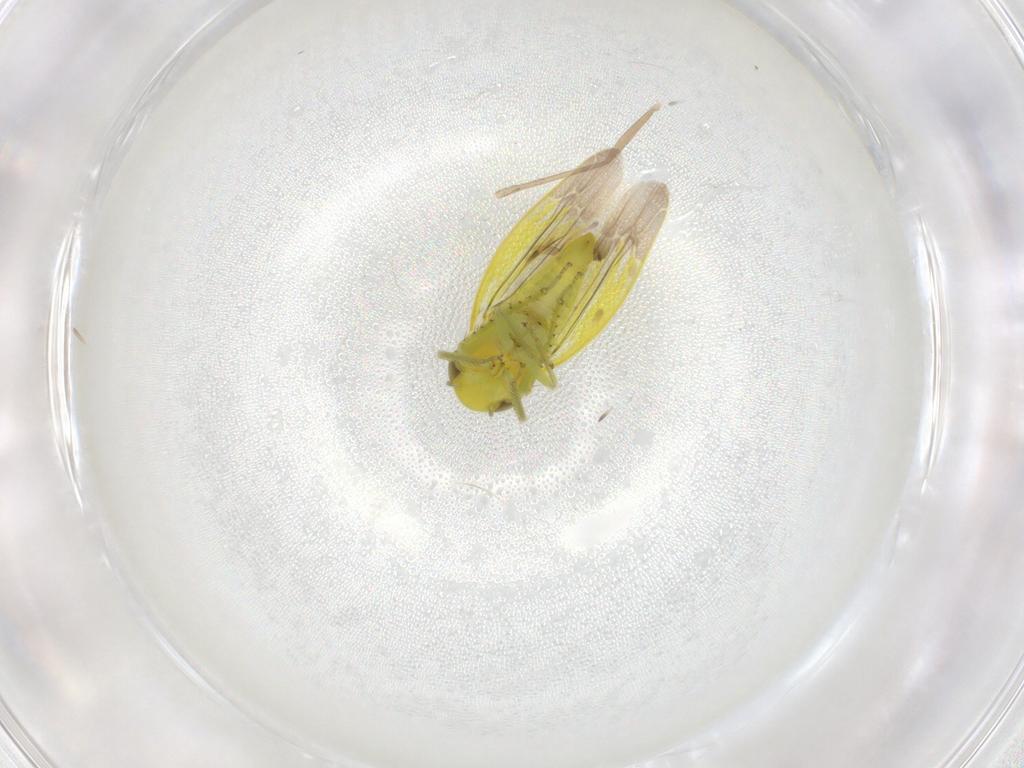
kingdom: Animalia
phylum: Arthropoda
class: Insecta
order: Hemiptera
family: Cicadellidae
